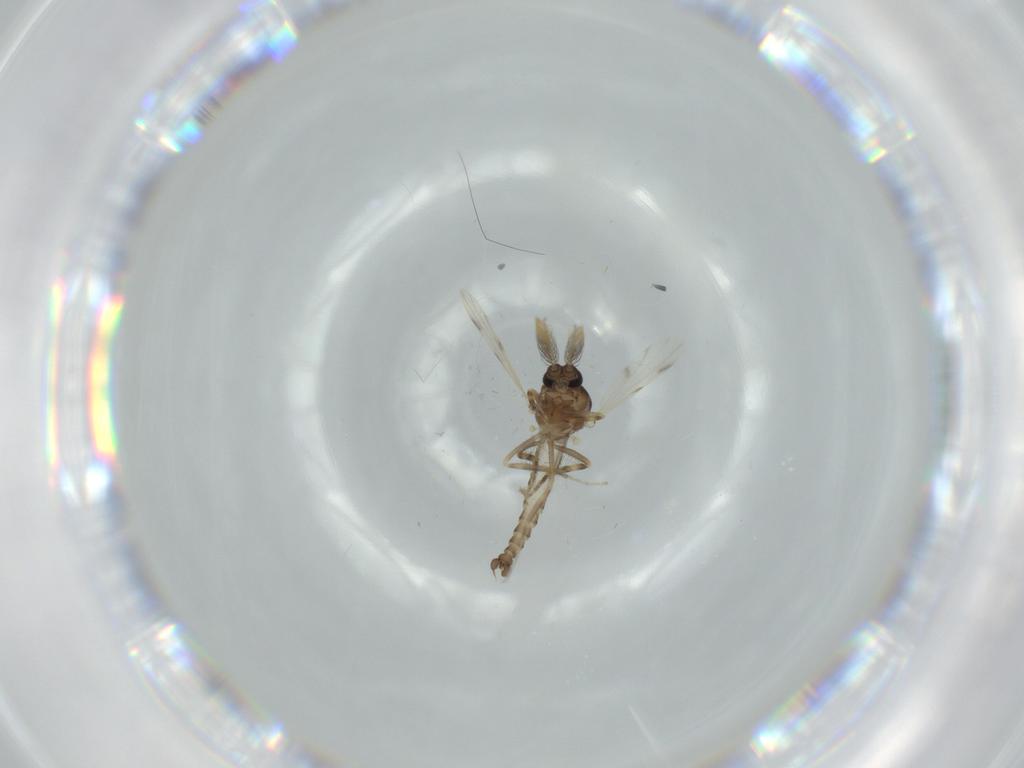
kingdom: Animalia
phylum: Arthropoda
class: Insecta
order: Diptera
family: Ceratopogonidae
